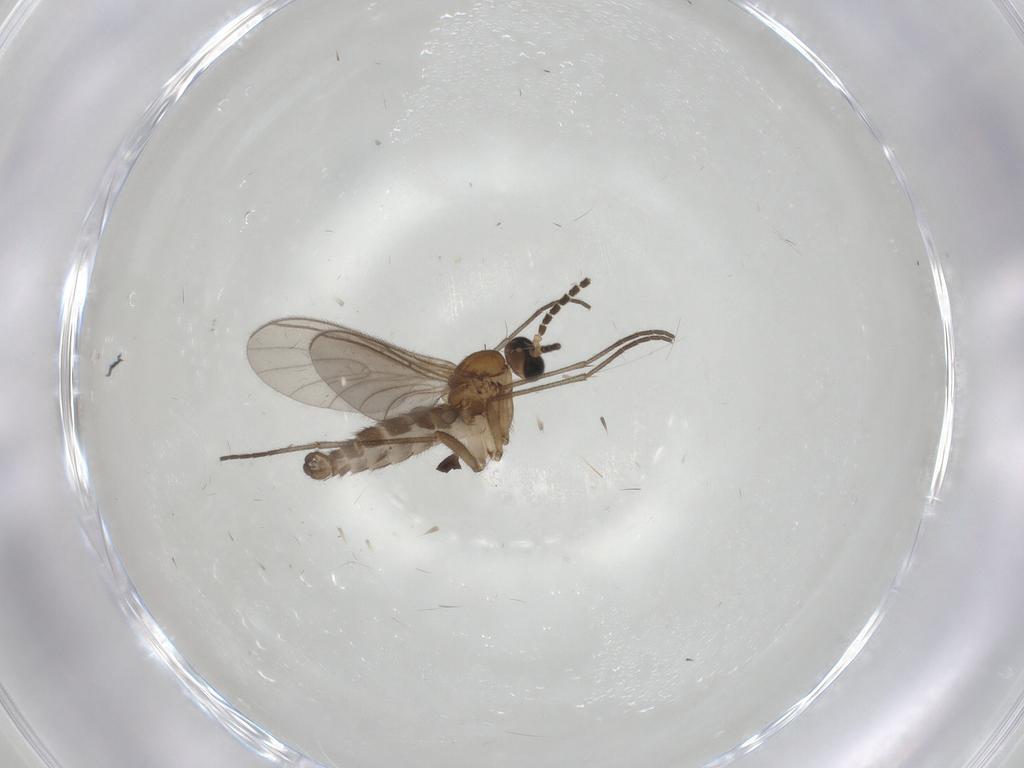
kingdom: Animalia
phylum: Arthropoda
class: Insecta
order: Diptera
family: Sciaridae
